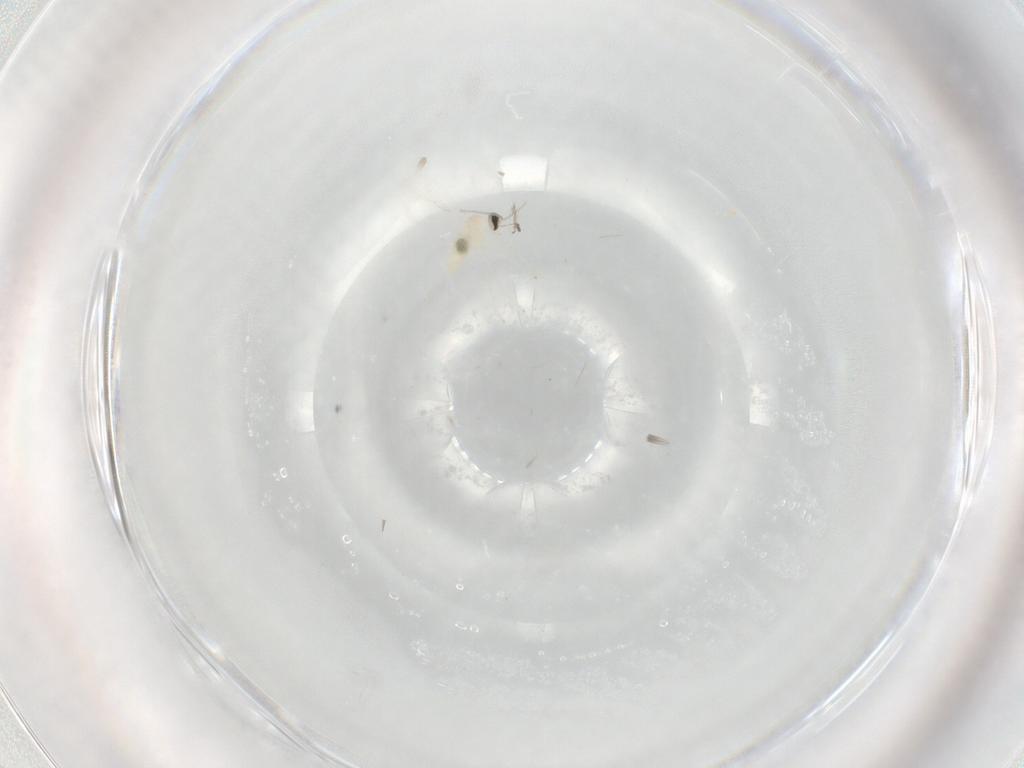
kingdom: Animalia
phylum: Arthropoda
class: Insecta
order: Diptera
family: Cecidomyiidae
